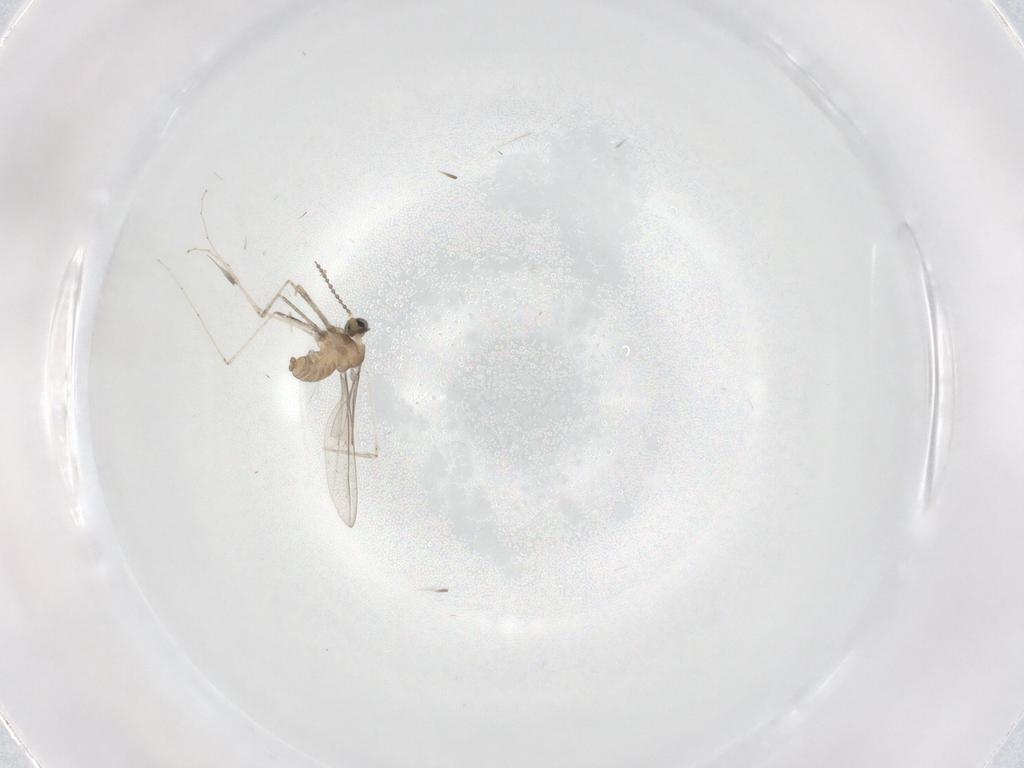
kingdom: Animalia
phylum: Arthropoda
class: Insecta
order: Diptera
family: Cecidomyiidae
